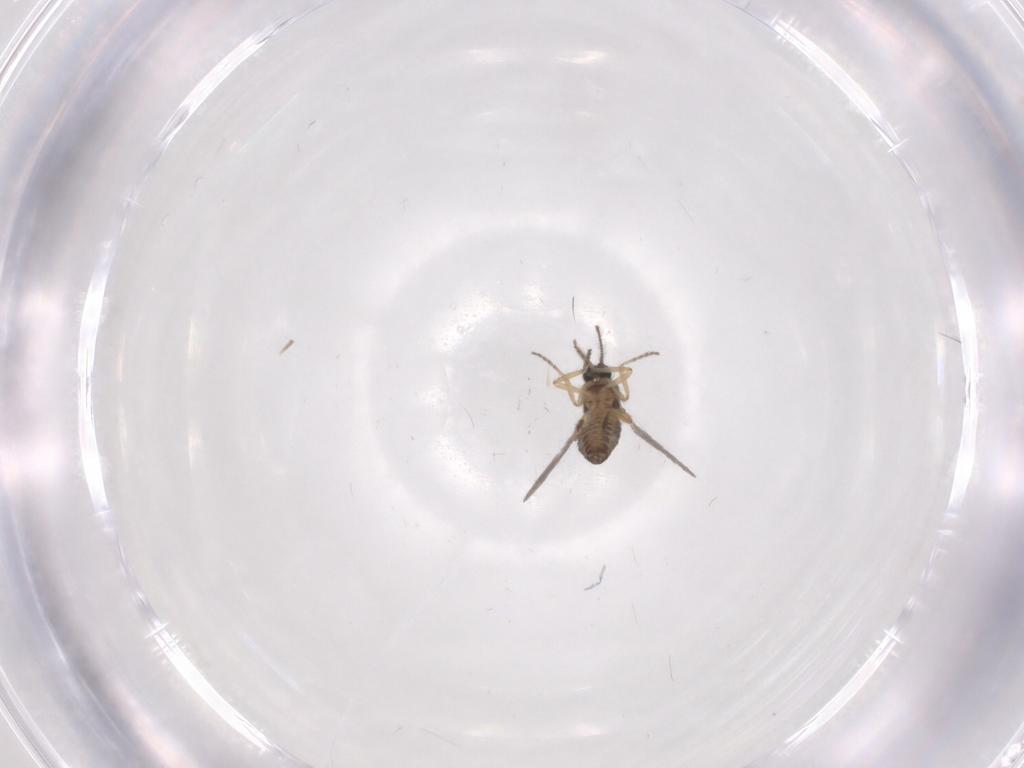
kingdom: Animalia
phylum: Arthropoda
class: Insecta
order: Diptera
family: Ceratopogonidae
